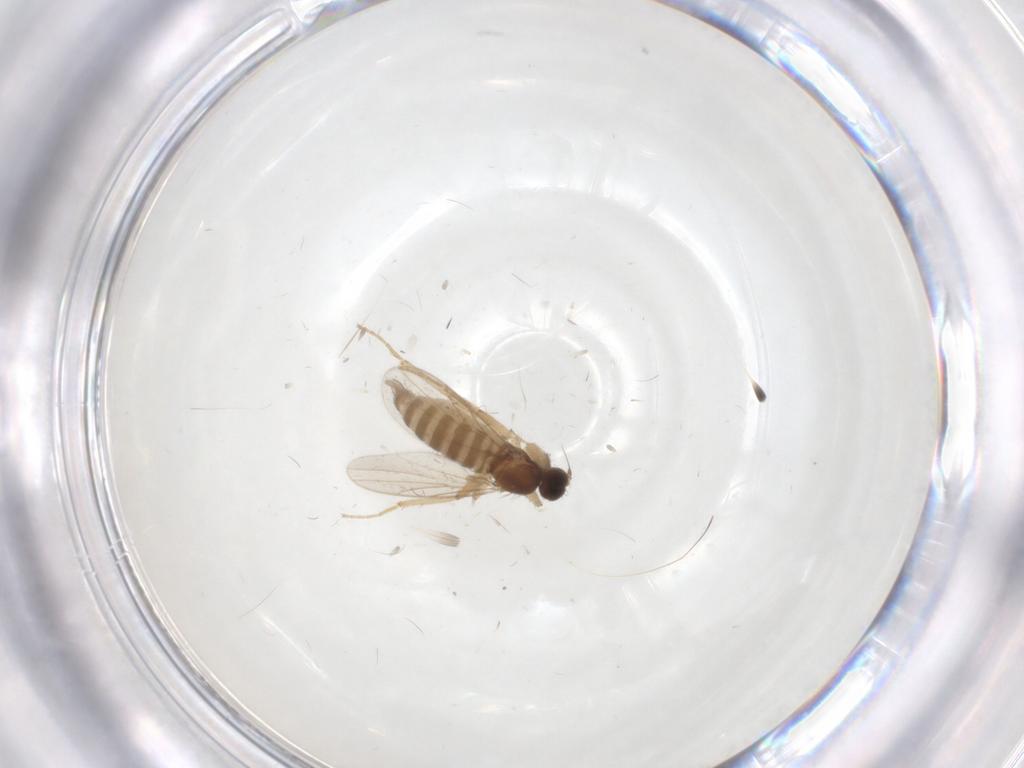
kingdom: Animalia
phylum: Arthropoda
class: Insecta
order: Diptera
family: Hybotidae
